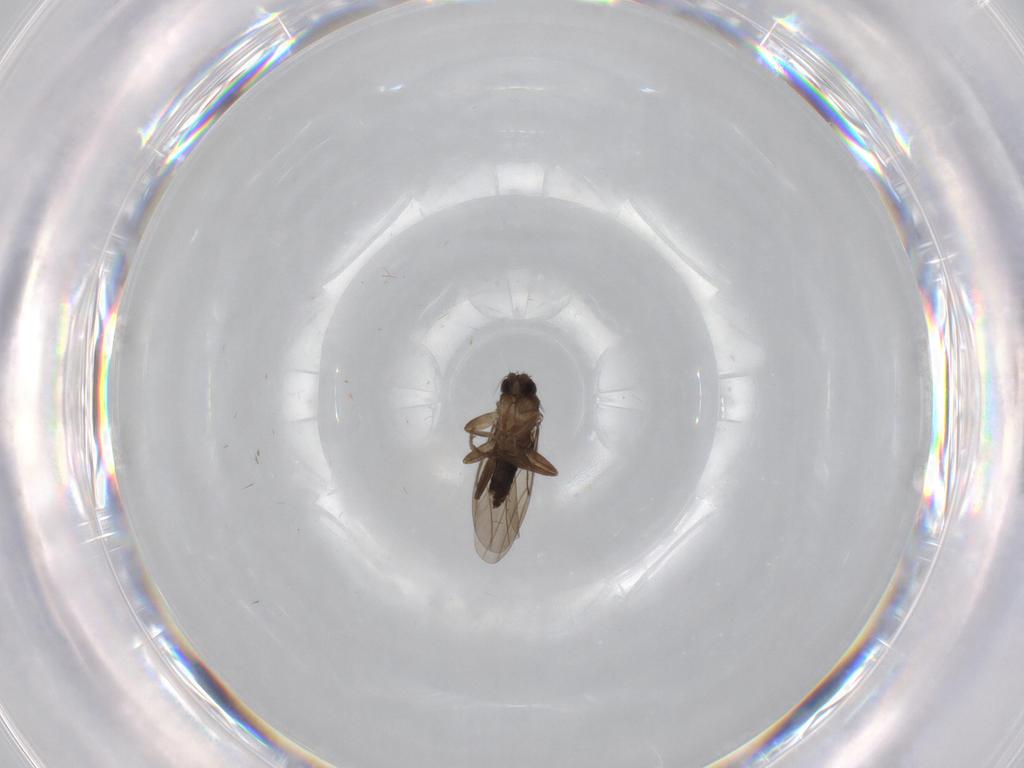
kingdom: Animalia
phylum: Arthropoda
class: Insecta
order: Diptera
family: Phoridae
